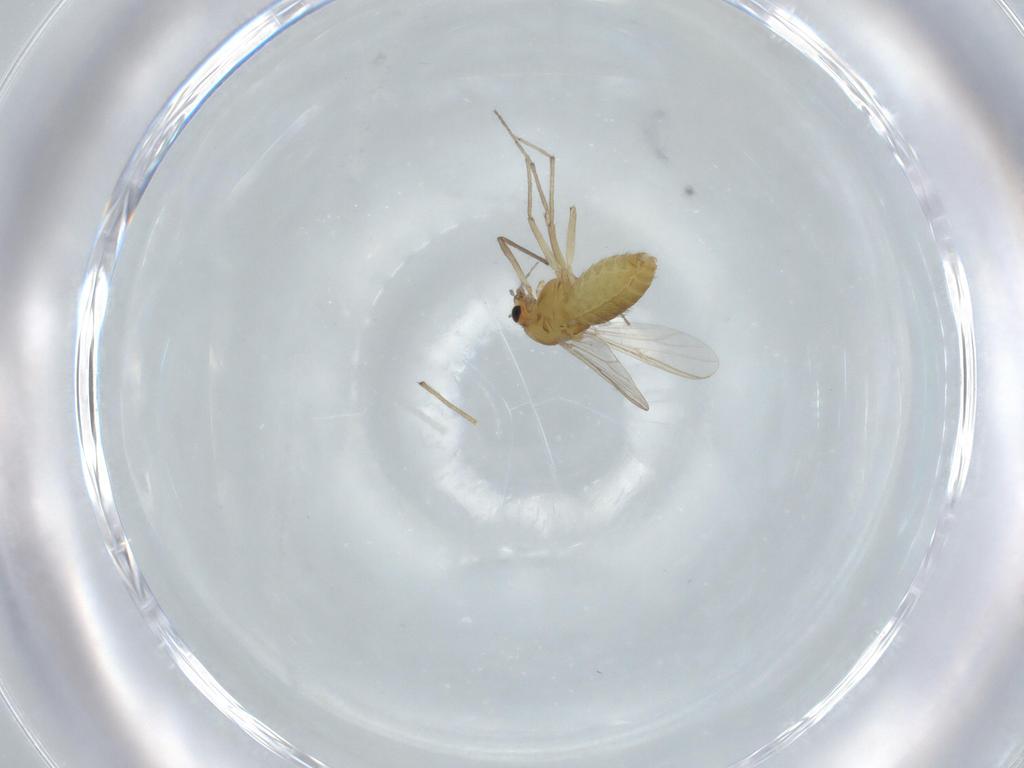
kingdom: Animalia
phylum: Arthropoda
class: Insecta
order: Diptera
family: Chironomidae
